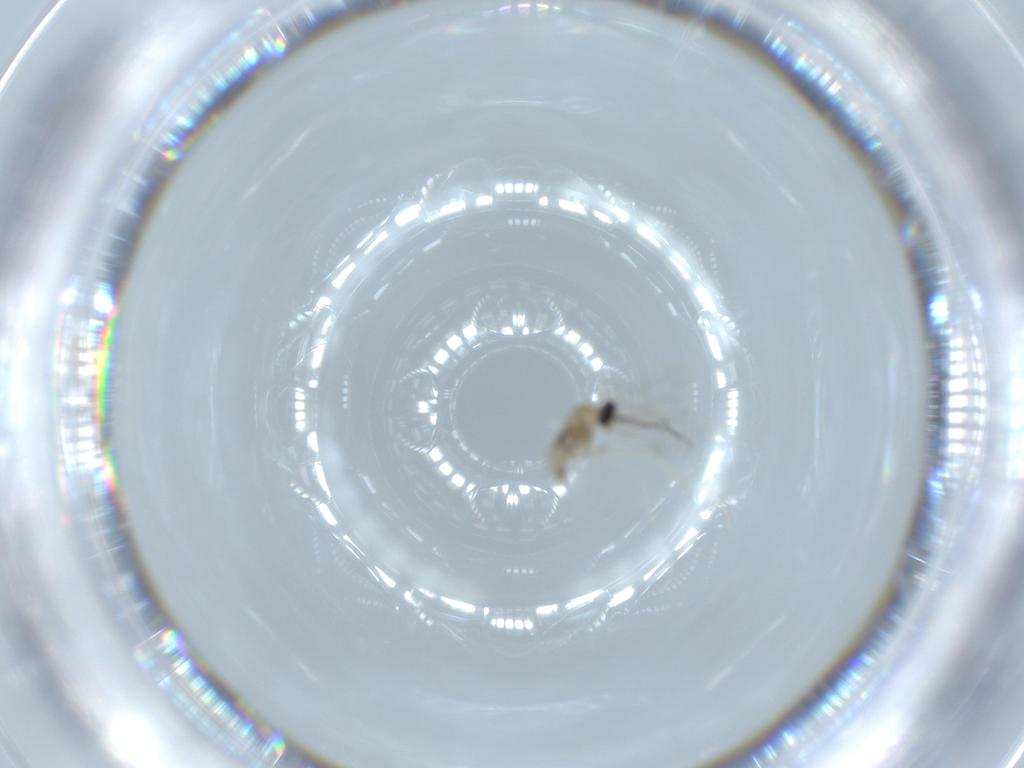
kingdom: Animalia
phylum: Arthropoda
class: Insecta
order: Diptera
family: Cecidomyiidae
